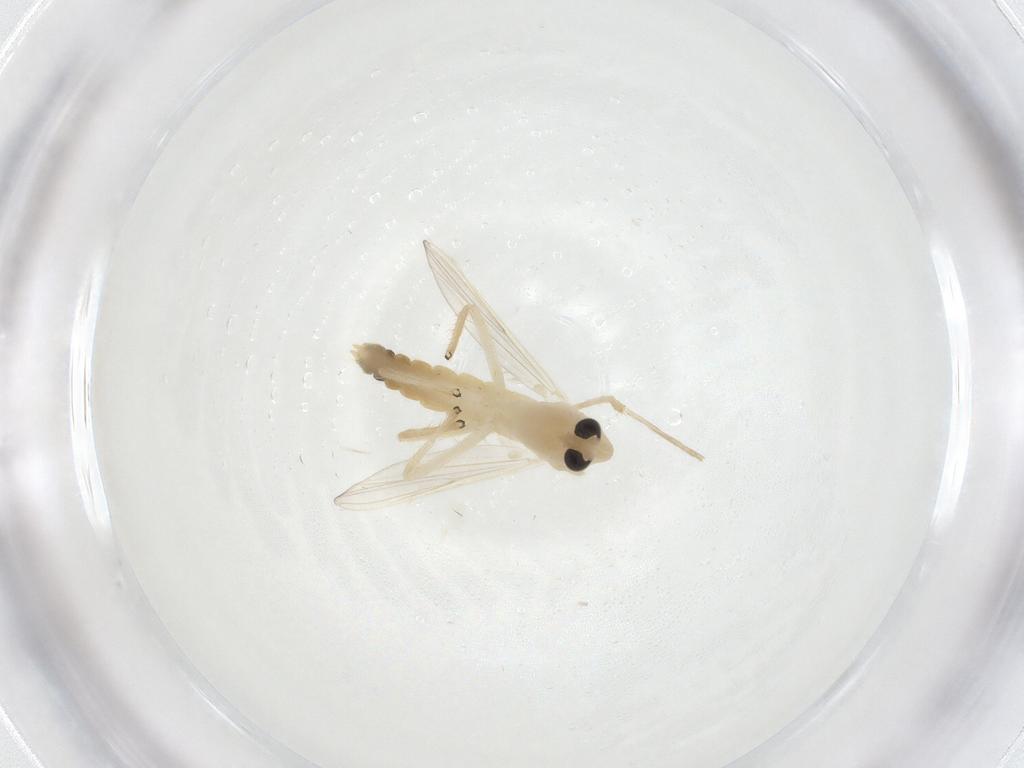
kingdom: Animalia
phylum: Arthropoda
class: Insecta
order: Diptera
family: Chironomidae
